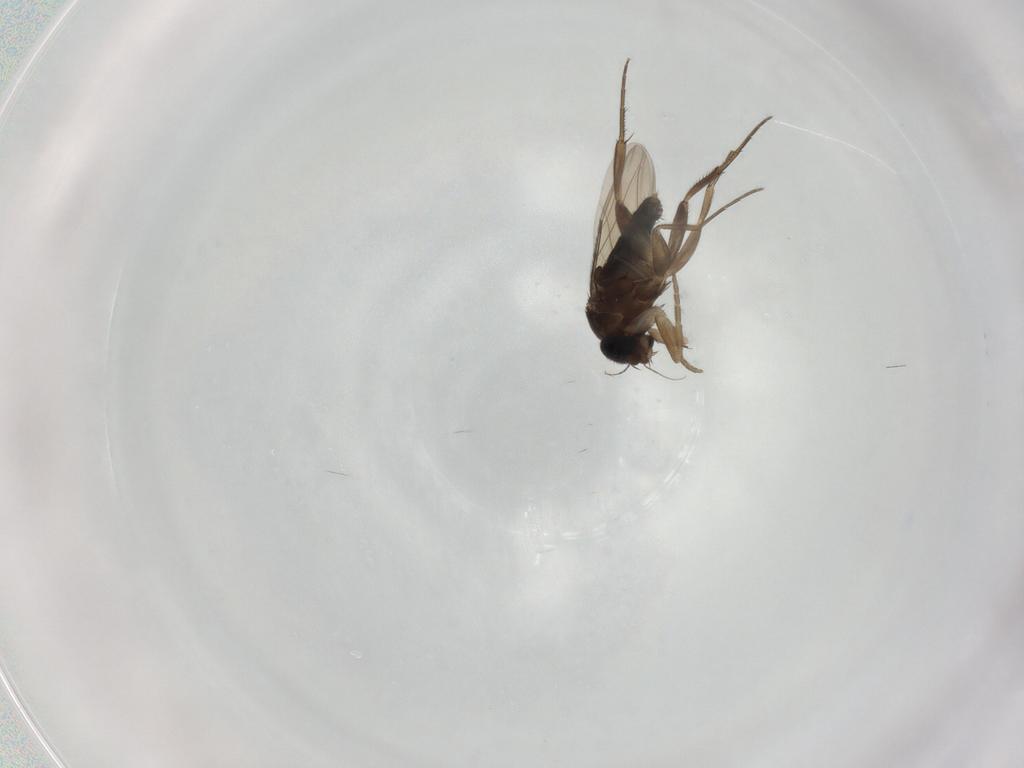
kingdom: Animalia
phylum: Arthropoda
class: Insecta
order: Diptera
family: Phoridae
